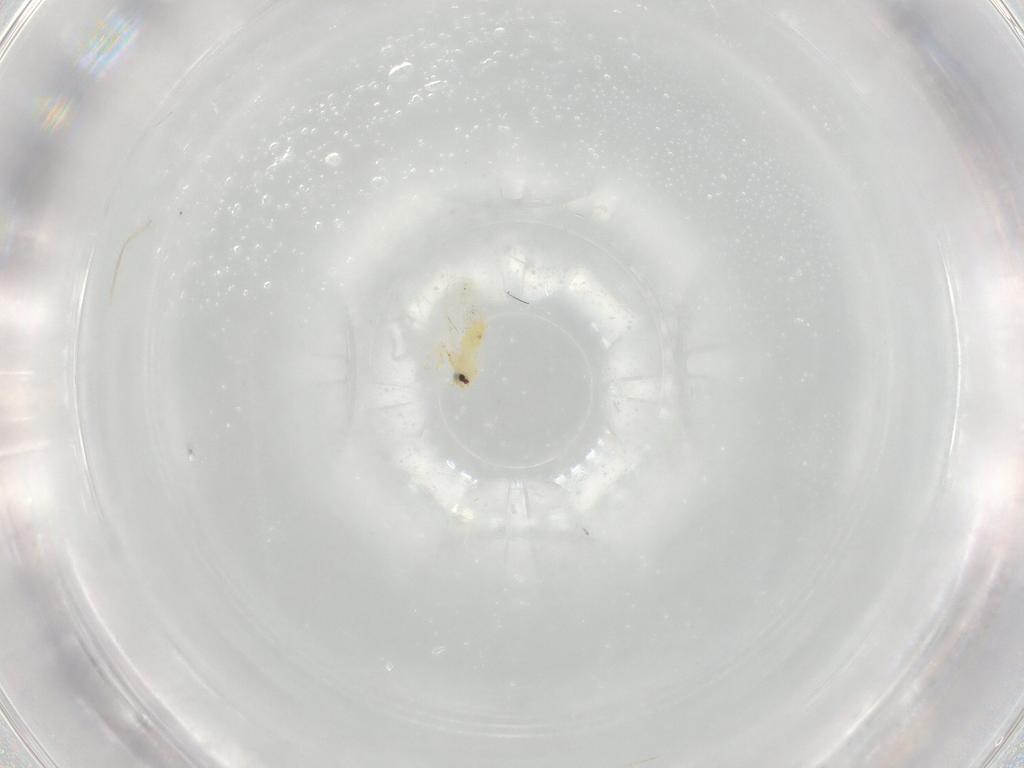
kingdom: Animalia
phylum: Arthropoda
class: Insecta
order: Hemiptera
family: Aleyrodidae
